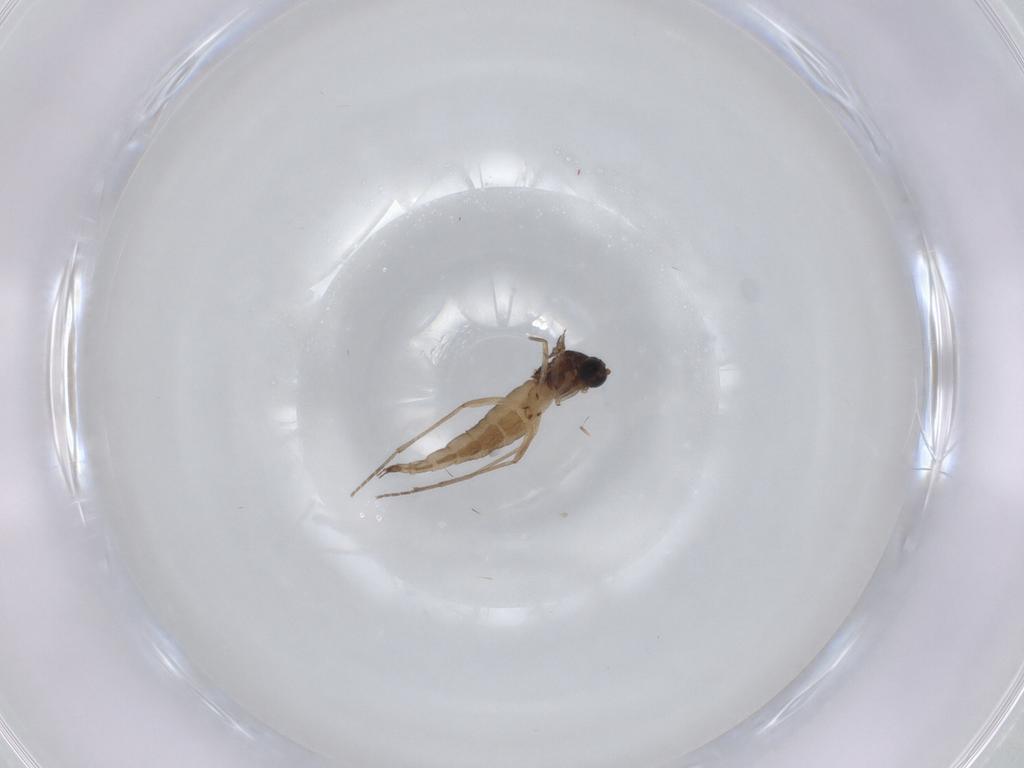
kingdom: Animalia
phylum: Arthropoda
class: Insecta
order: Diptera
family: Sciaridae
